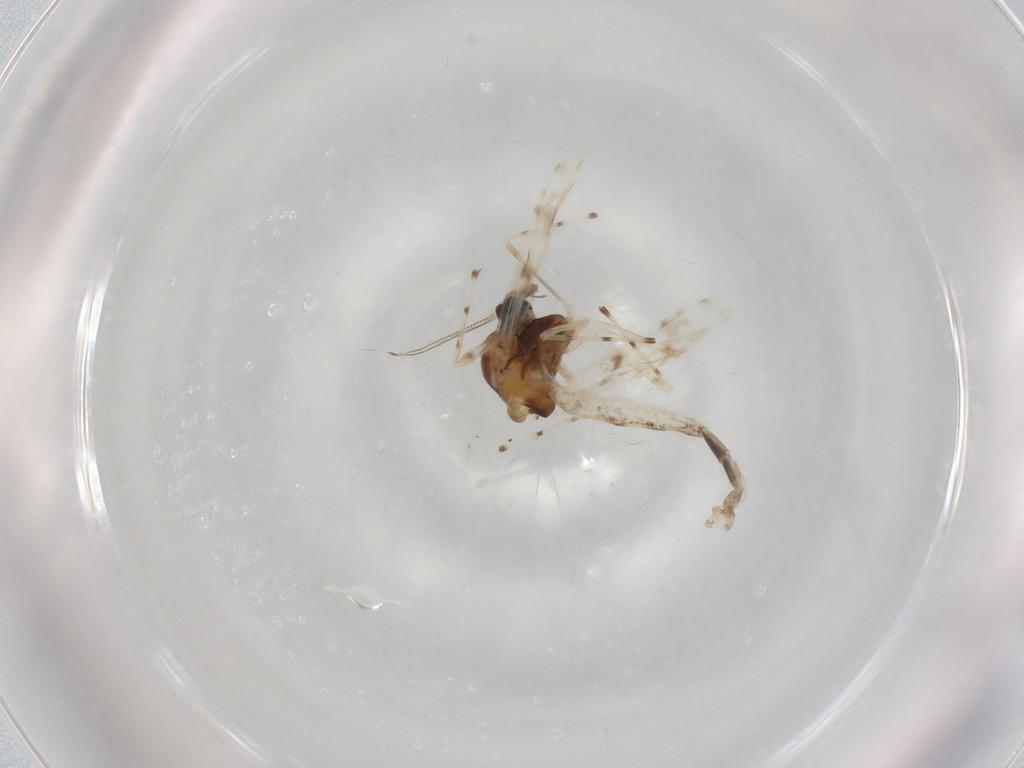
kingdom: Animalia
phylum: Arthropoda
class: Insecta
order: Diptera
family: Chironomidae
